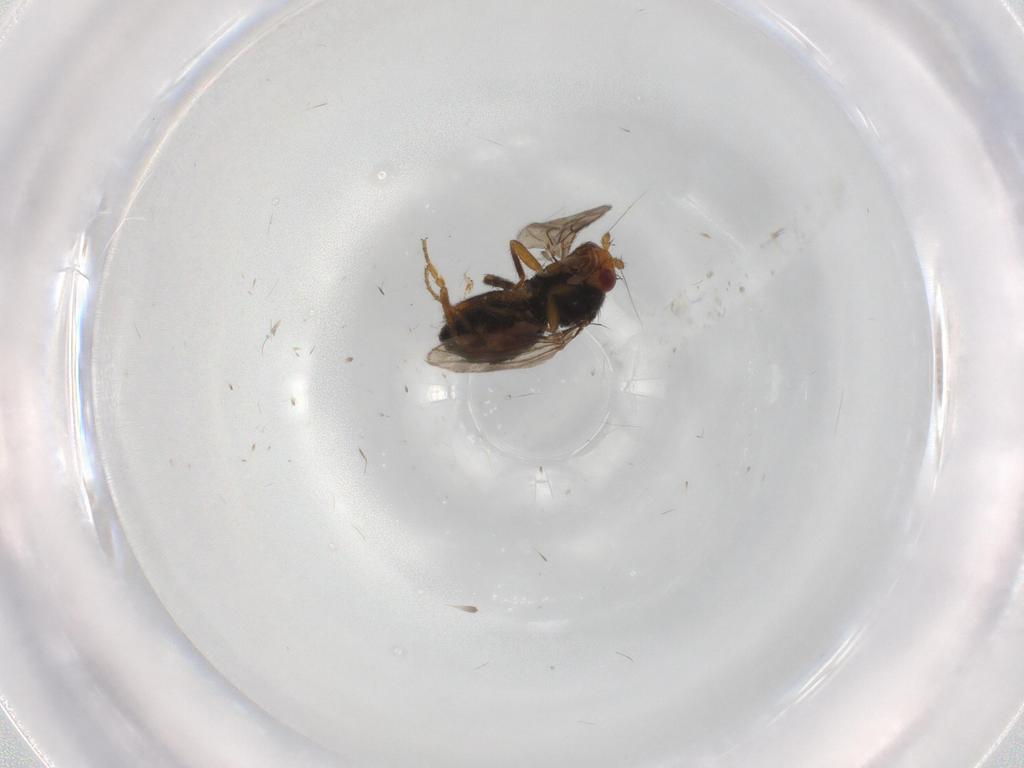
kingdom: Animalia
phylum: Arthropoda
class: Insecta
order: Diptera
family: Sphaeroceridae
